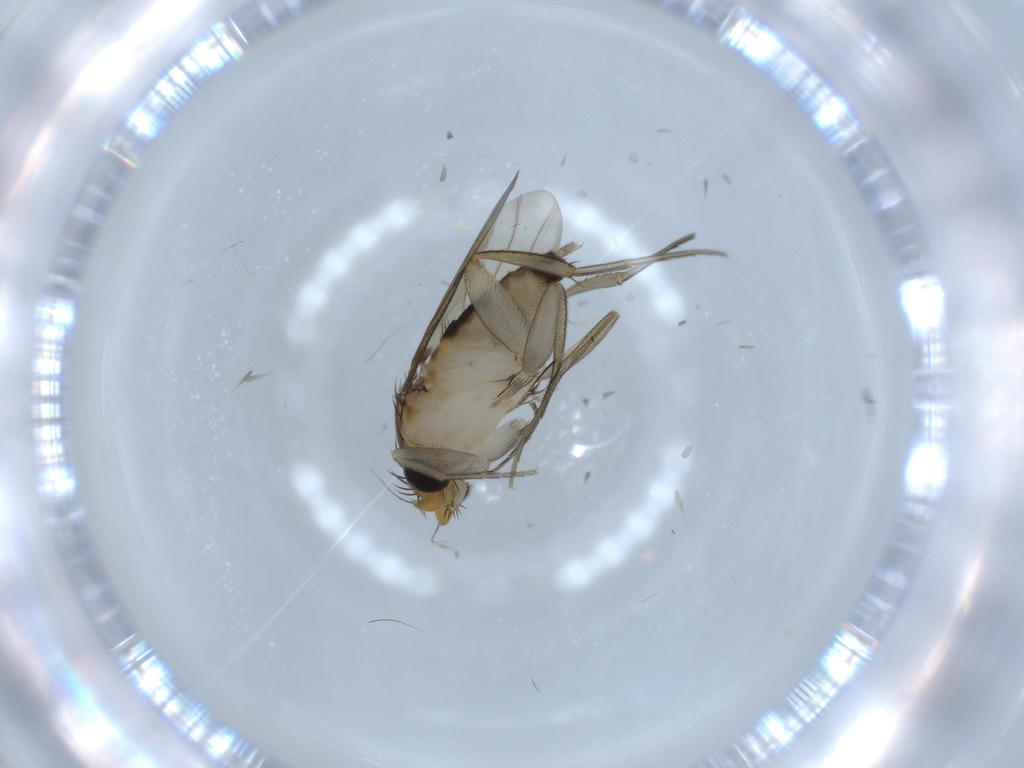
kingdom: Animalia
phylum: Arthropoda
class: Insecta
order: Diptera
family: Phoridae
